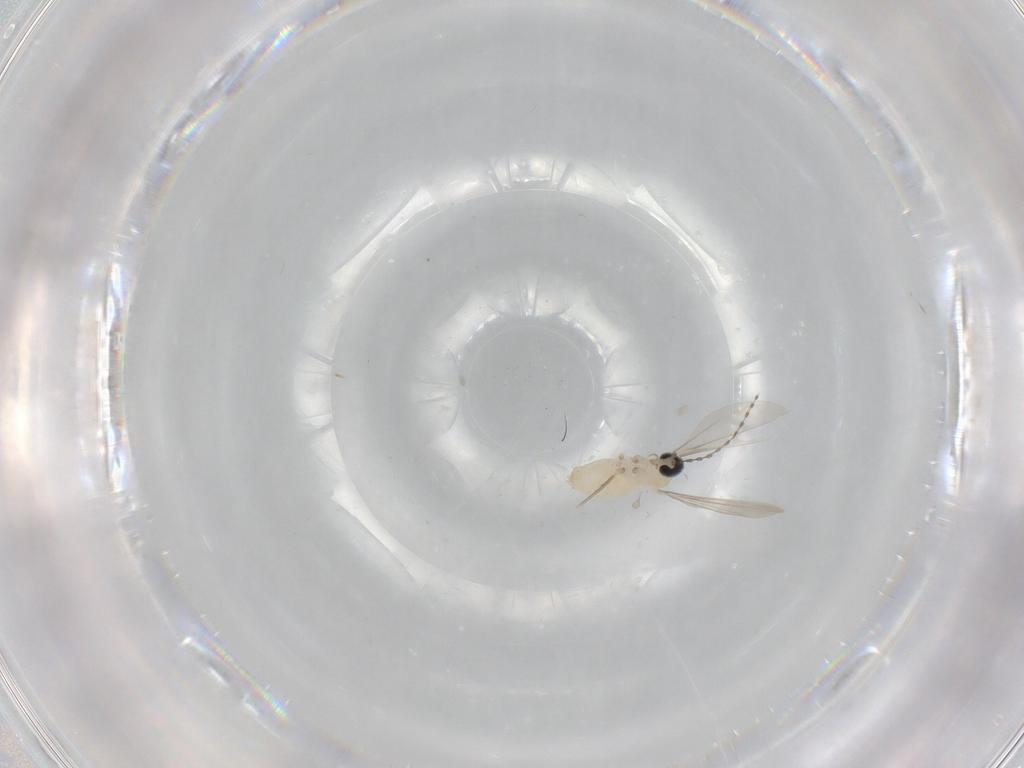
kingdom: Animalia
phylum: Arthropoda
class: Insecta
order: Diptera
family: Cecidomyiidae
